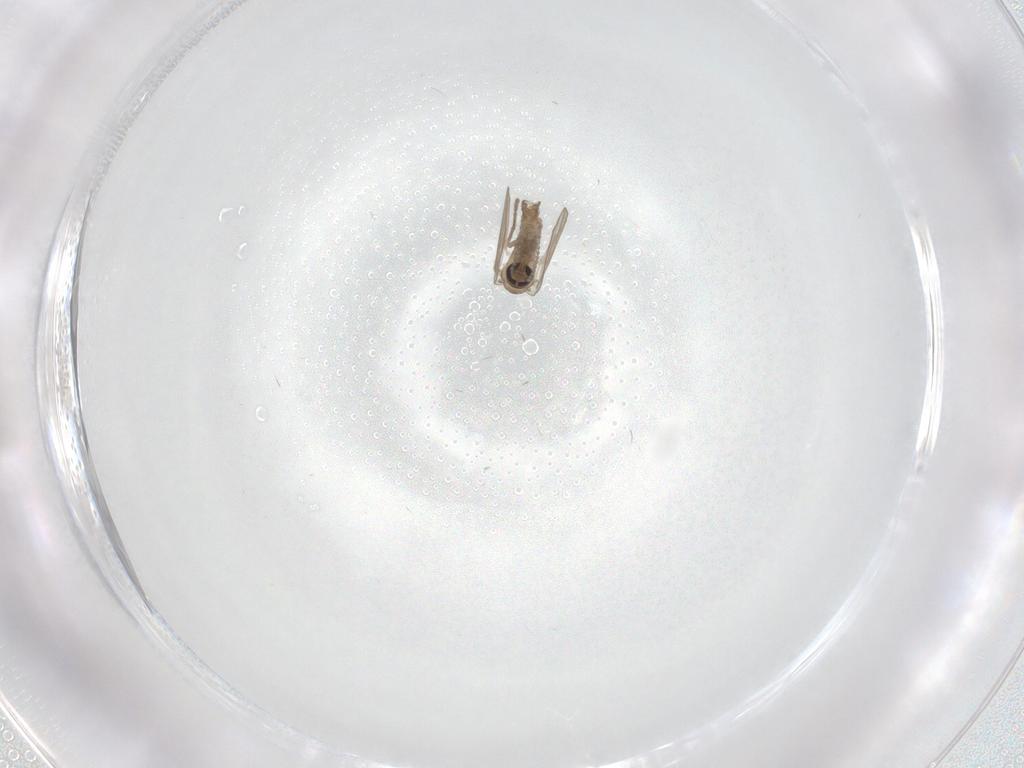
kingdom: Animalia
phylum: Arthropoda
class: Insecta
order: Diptera
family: Psychodidae
